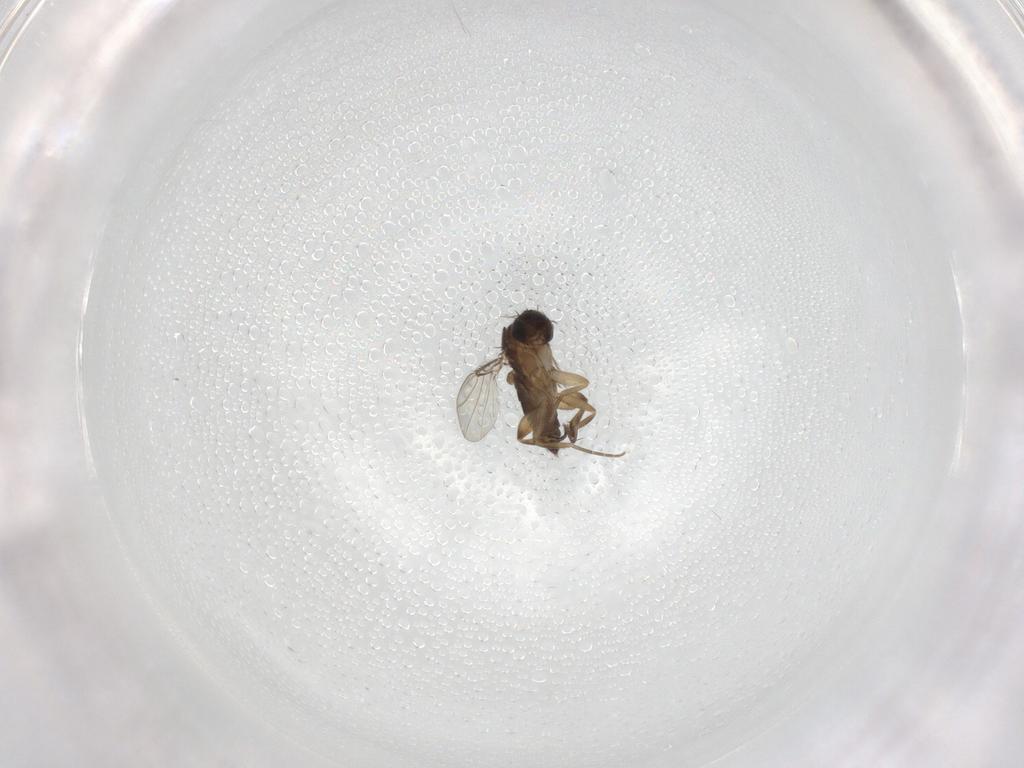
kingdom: Animalia
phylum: Arthropoda
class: Insecta
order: Diptera
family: Phoridae
